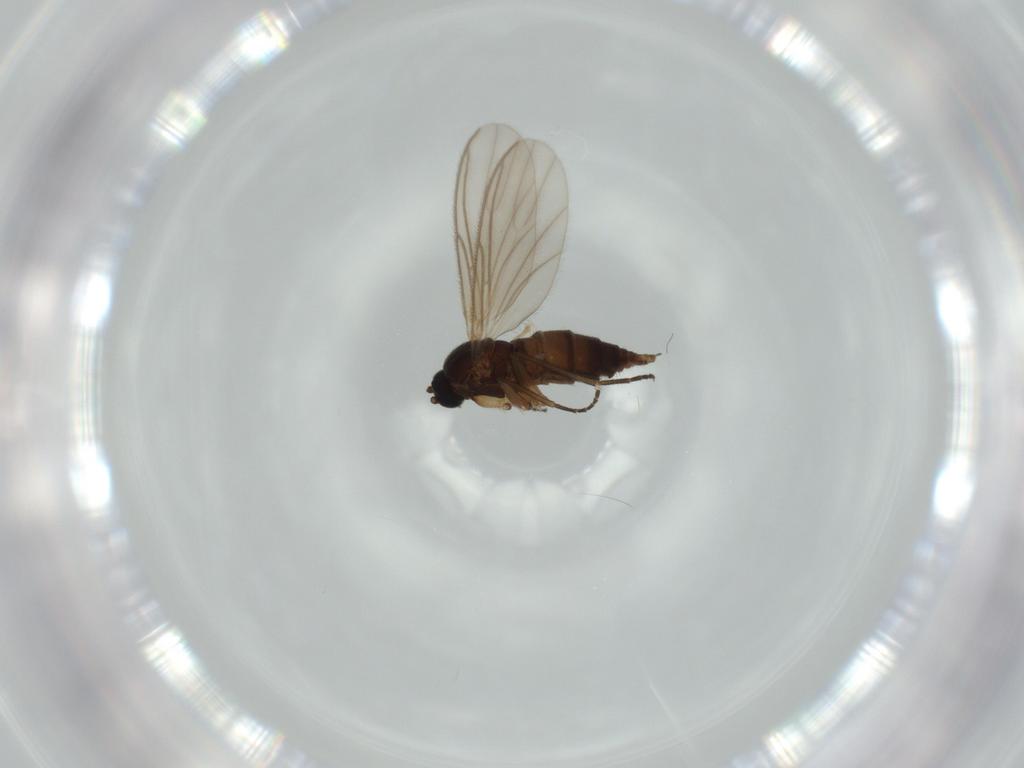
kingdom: Animalia
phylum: Arthropoda
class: Insecta
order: Diptera
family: Sciaridae
